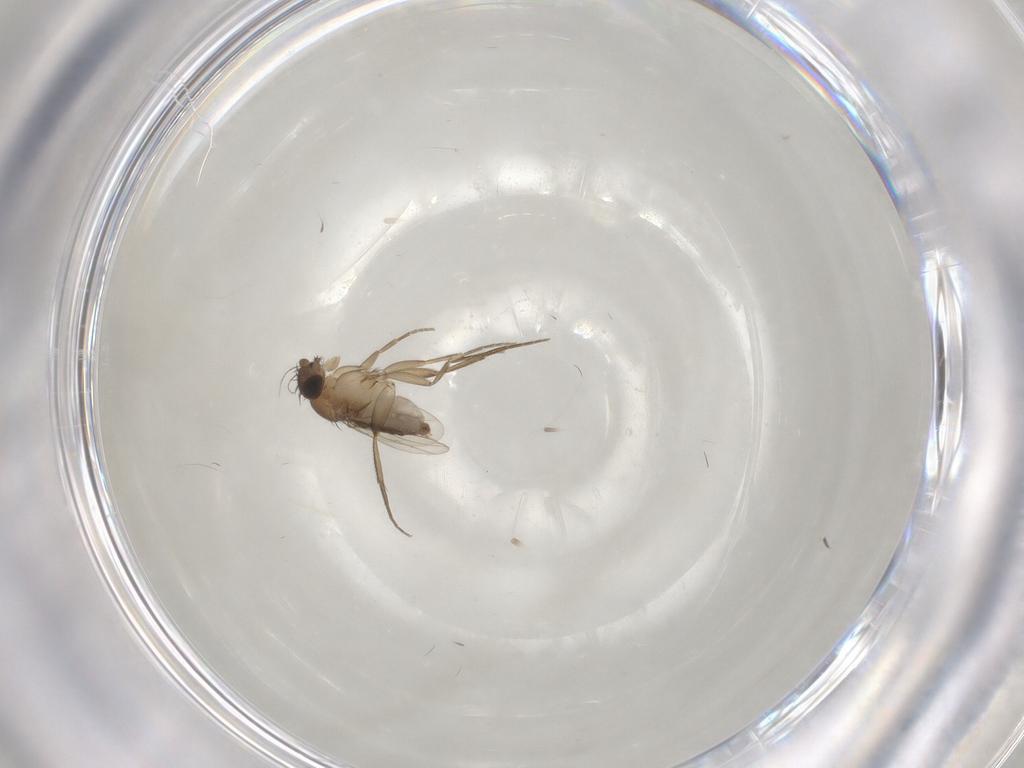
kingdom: Animalia
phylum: Arthropoda
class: Insecta
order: Diptera
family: Phoridae
